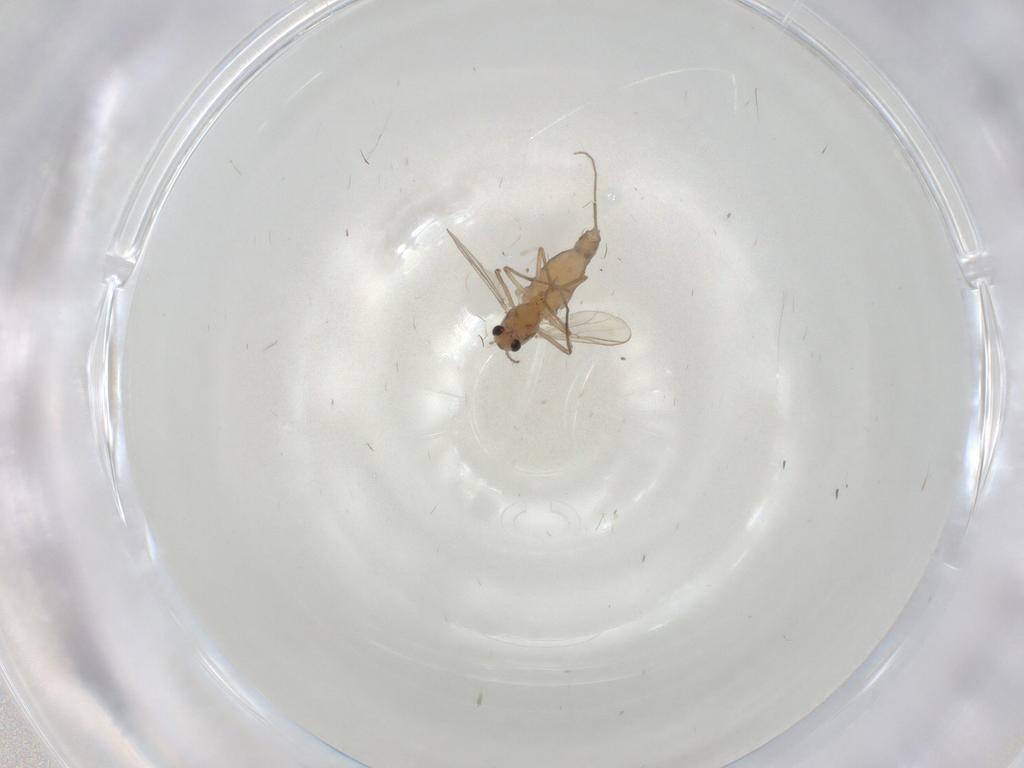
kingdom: Animalia
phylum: Arthropoda
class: Insecta
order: Diptera
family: Chironomidae
